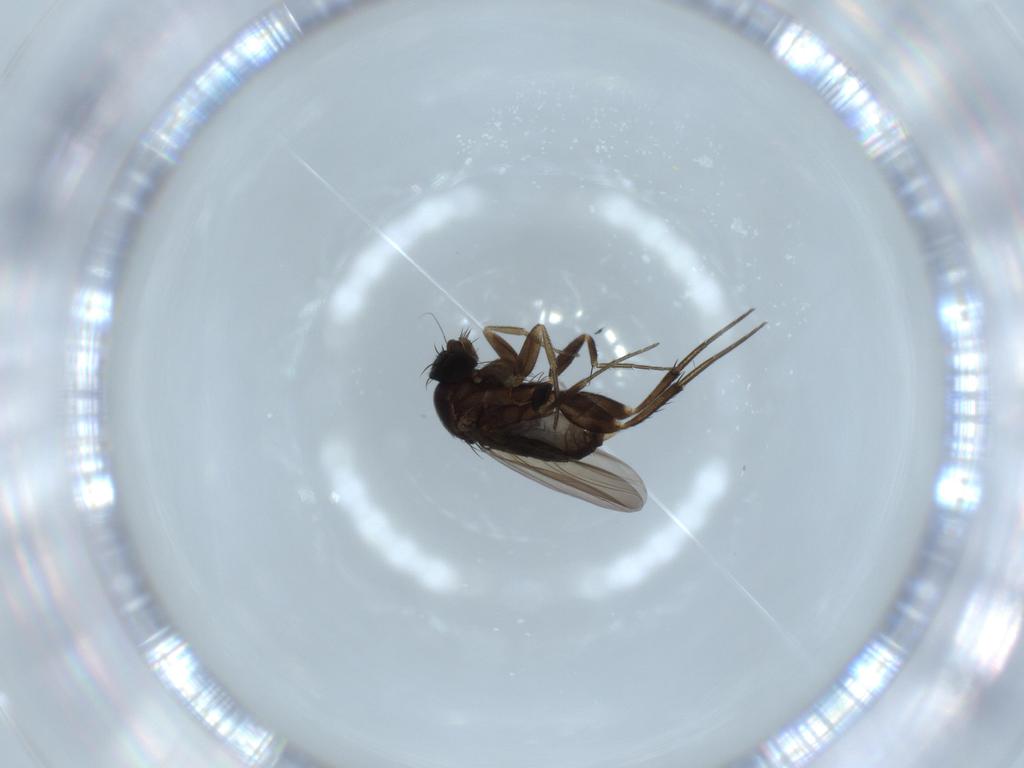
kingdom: Animalia
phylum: Arthropoda
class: Insecta
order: Diptera
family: Phoridae
